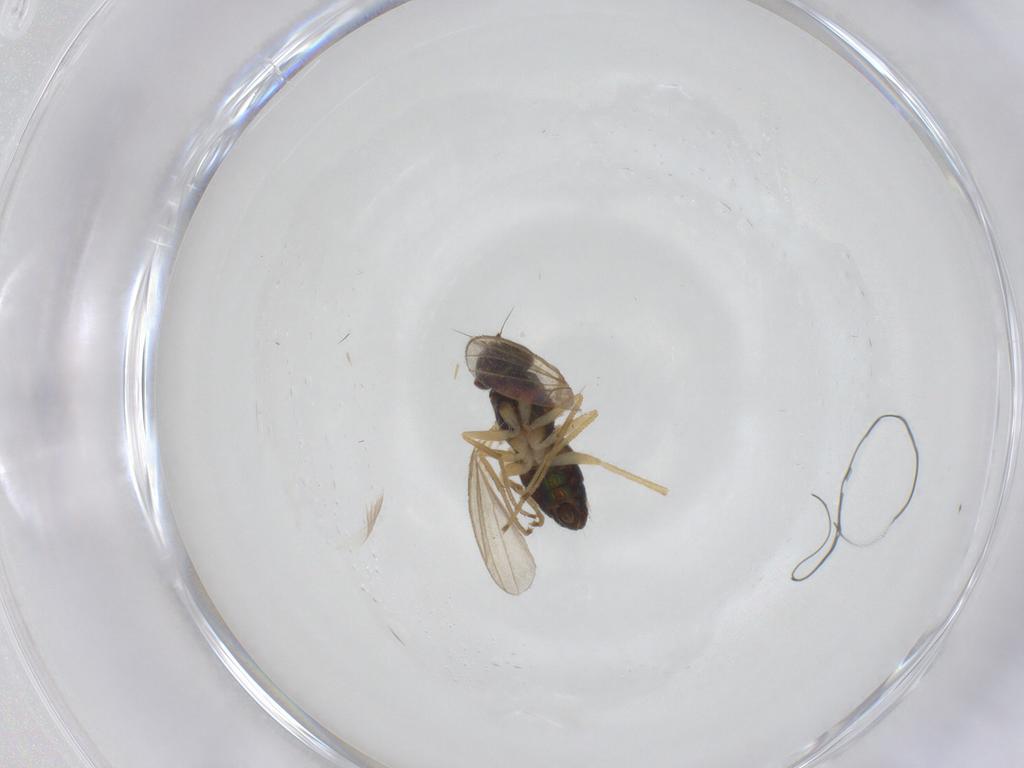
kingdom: Animalia
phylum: Arthropoda
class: Insecta
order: Diptera
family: Dolichopodidae
